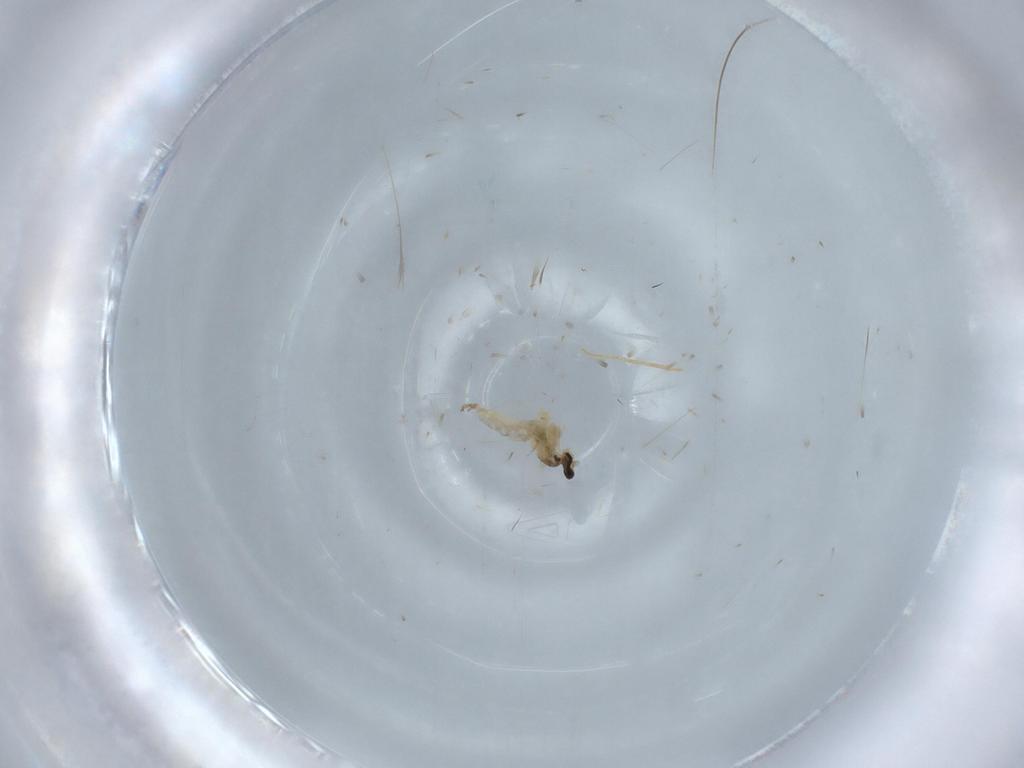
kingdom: Animalia
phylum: Arthropoda
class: Insecta
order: Diptera
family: Cecidomyiidae
